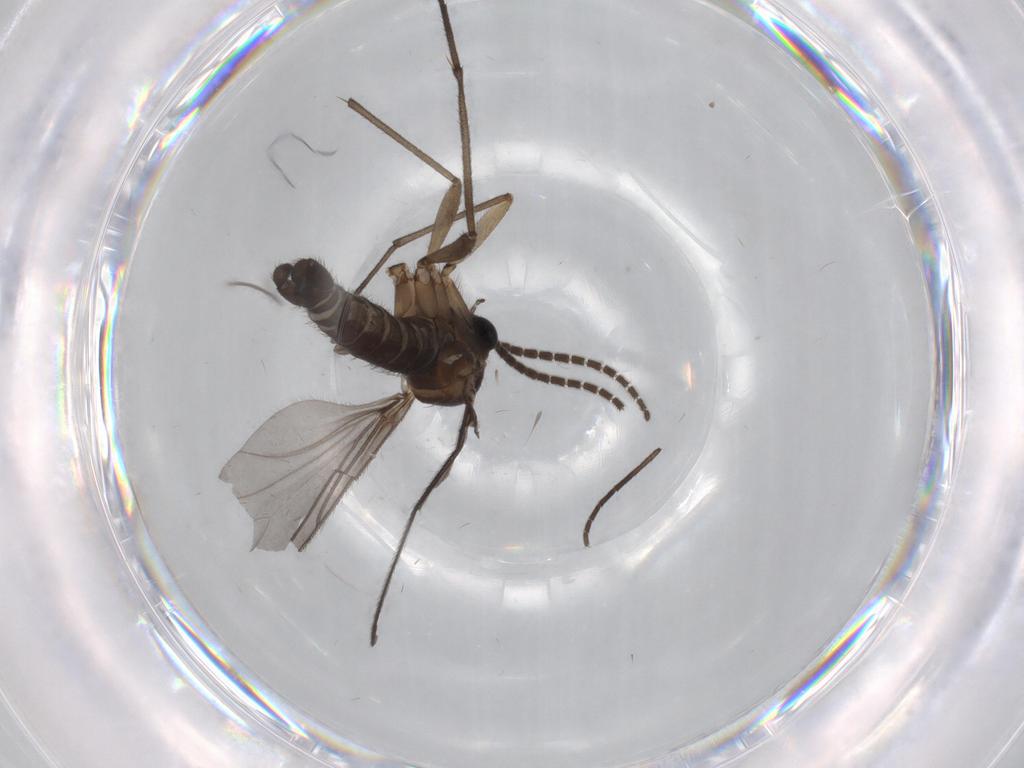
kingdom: Animalia
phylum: Arthropoda
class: Insecta
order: Diptera
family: Sciaridae
